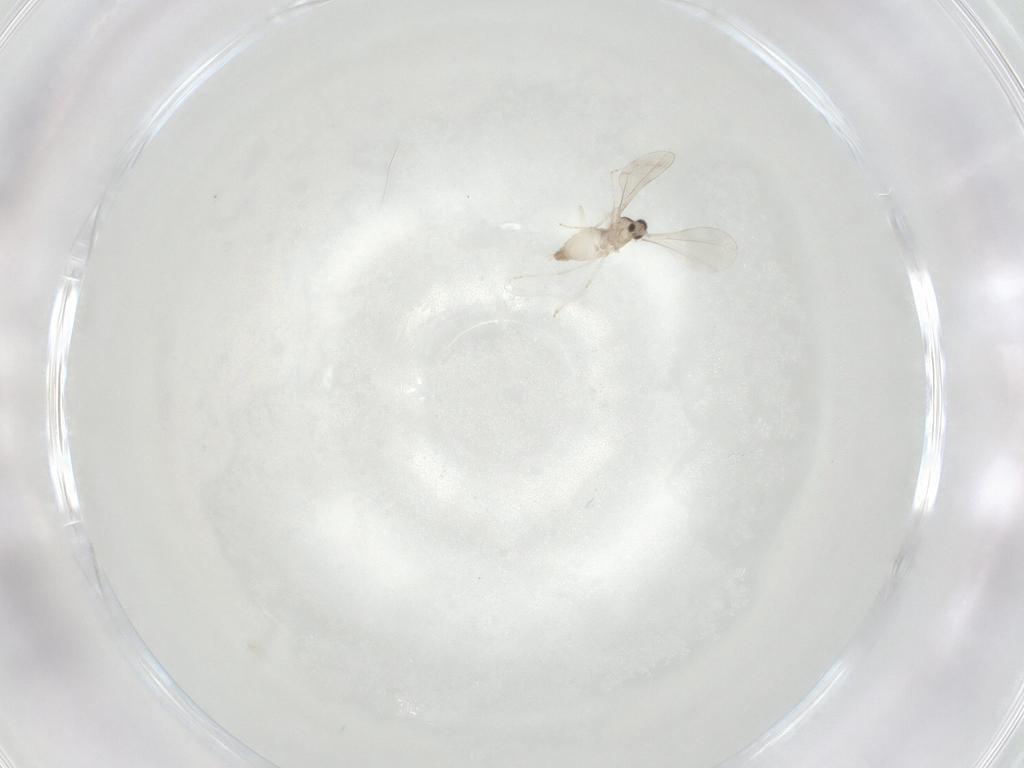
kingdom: Animalia
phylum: Arthropoda
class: Insecta
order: Diptera
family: Cecidomyiidae
